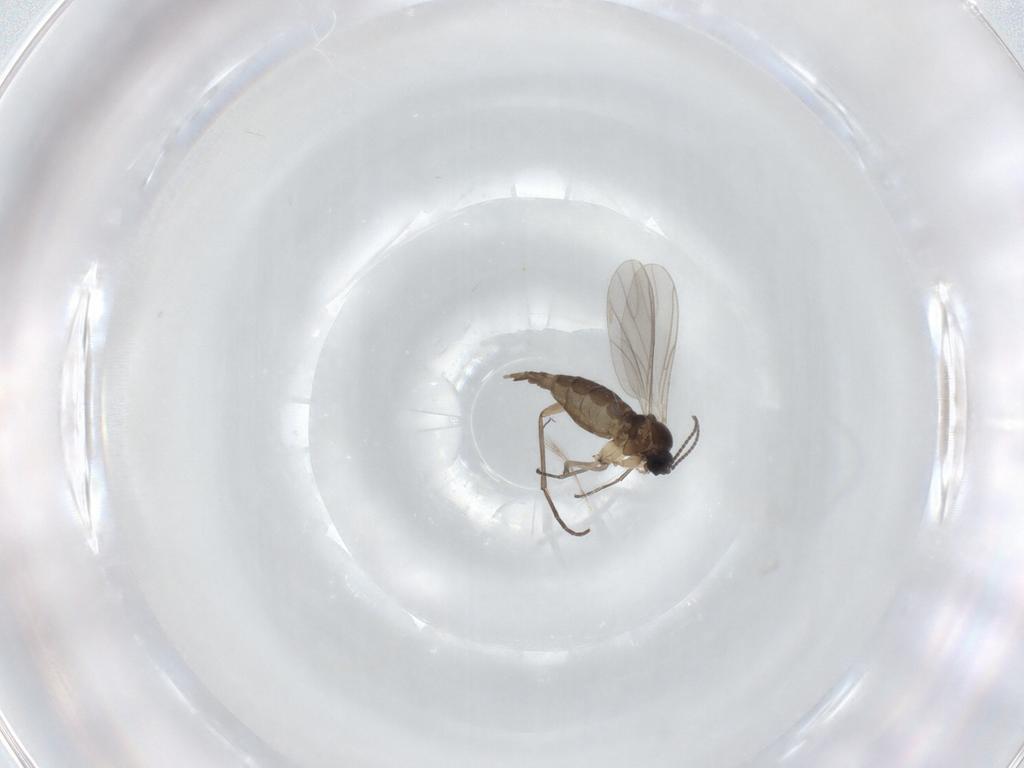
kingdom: Animalia
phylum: Arthropoda
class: Insecta
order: Diptera
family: Sciaridae
